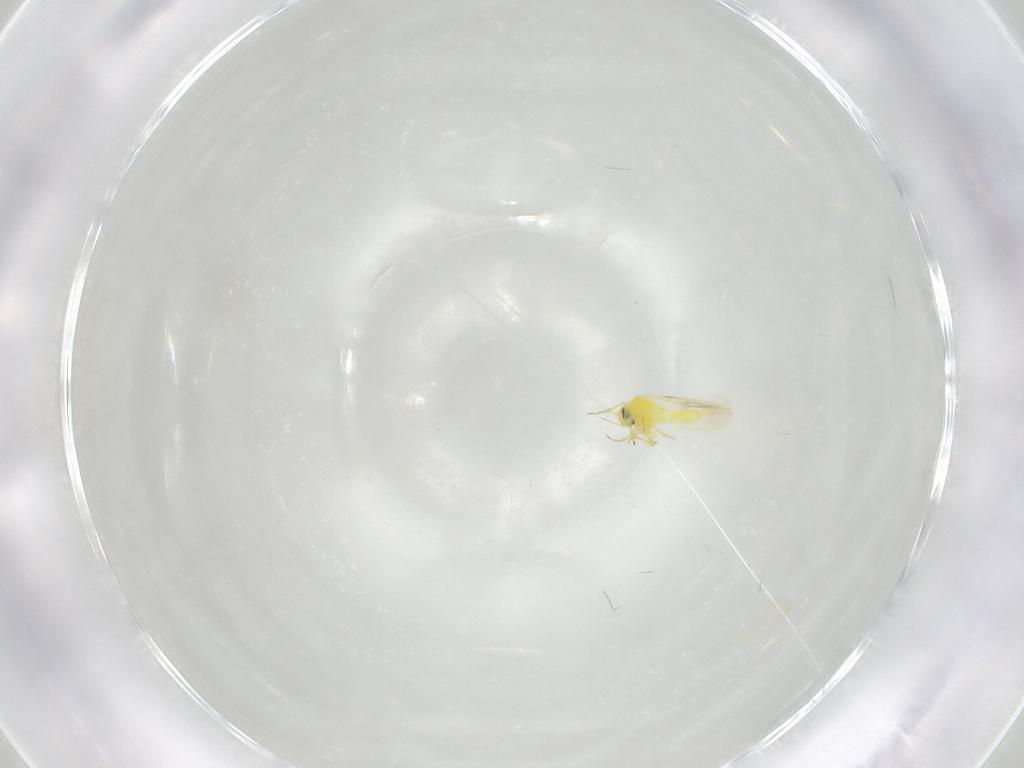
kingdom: Animalia
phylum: Arthropoda
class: Insecta
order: Hemiptera
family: Aleyrodidae
